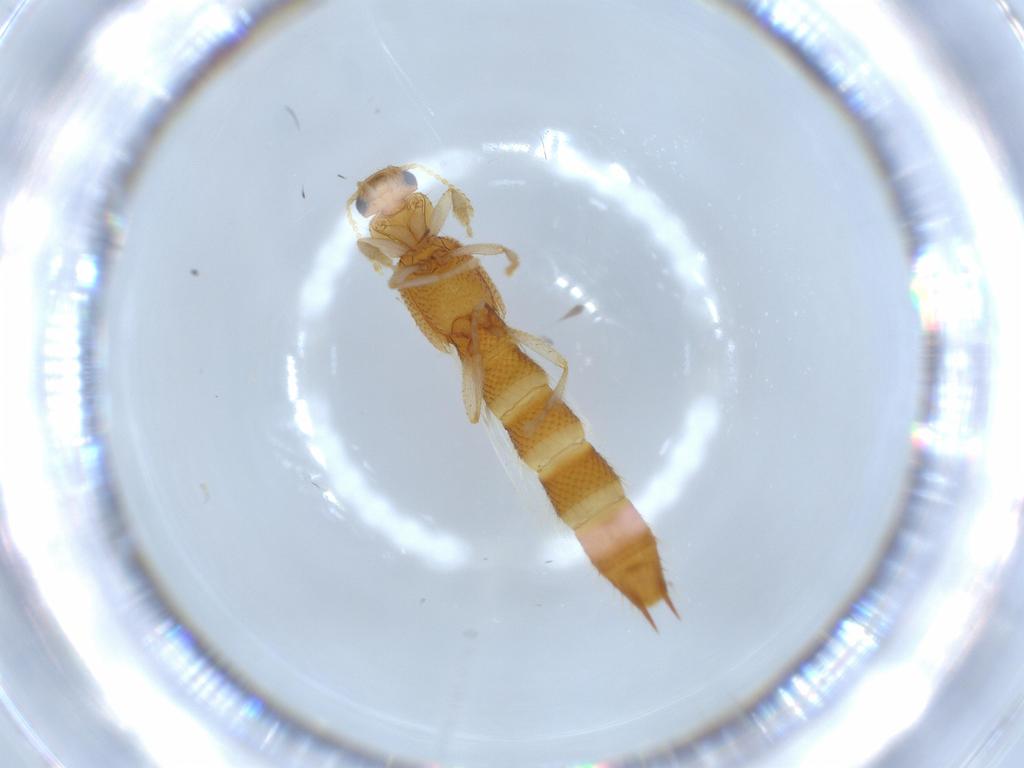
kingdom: Animalia
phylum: Arthropoda
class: Insecta
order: Coleoptera
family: Staphylinidae
